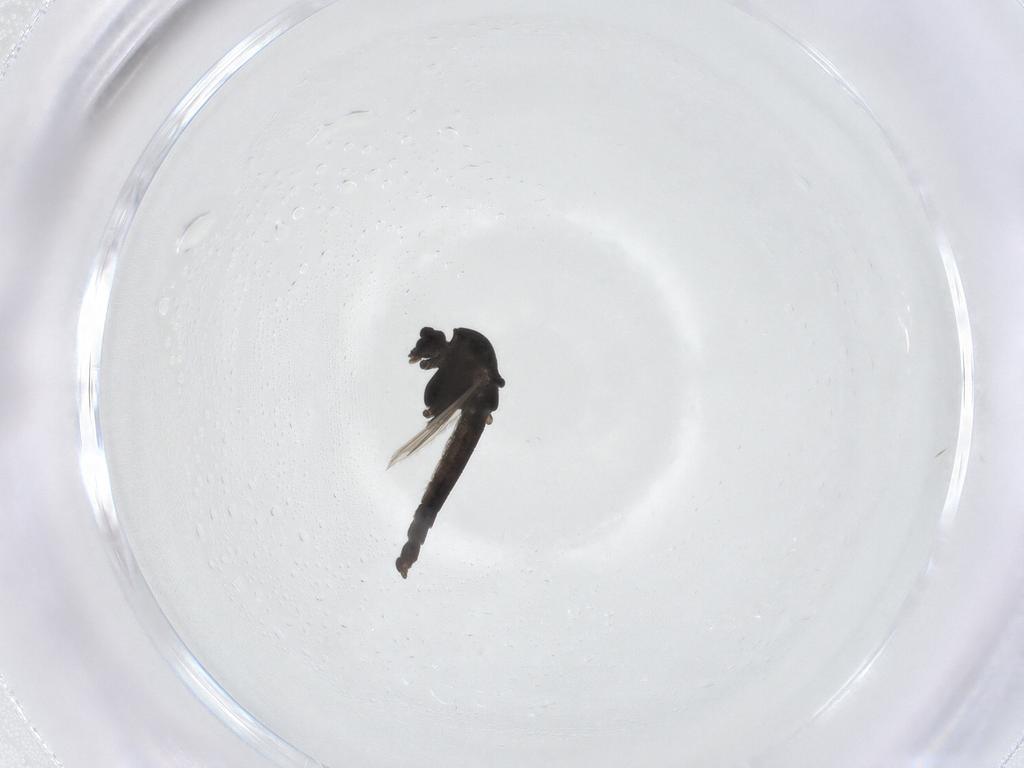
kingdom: Animalia
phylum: Arthropoda
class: Insecta
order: Diptera
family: Chironomidae
